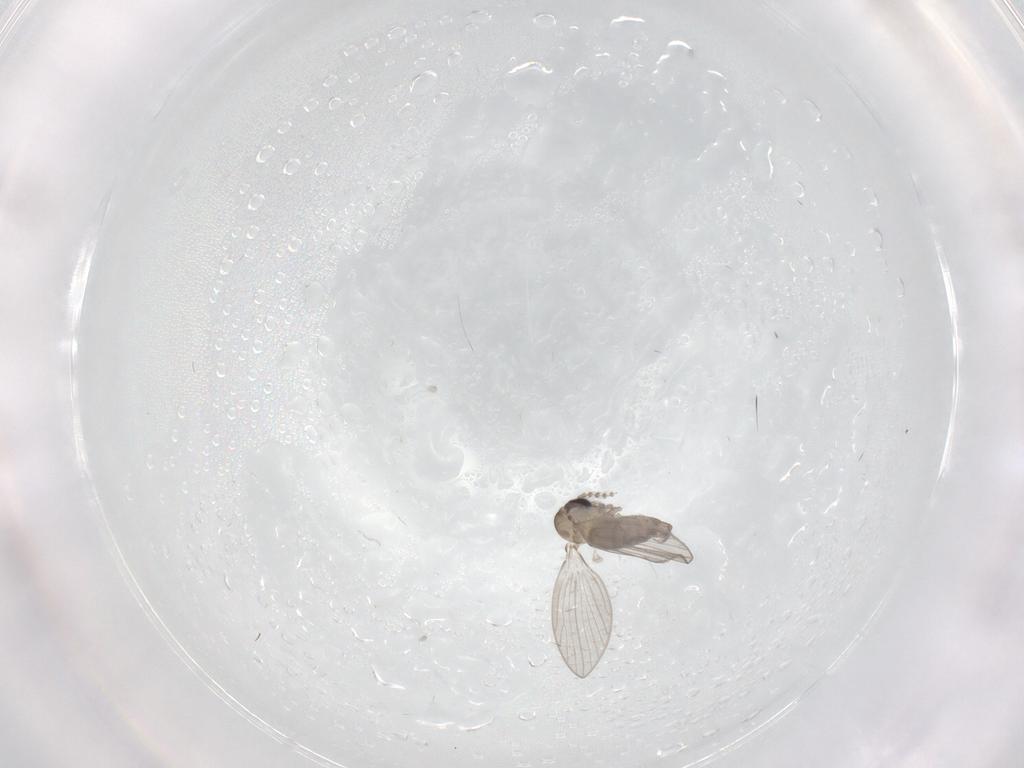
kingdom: Animalia
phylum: Arthropoda
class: Insecta
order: Diptera
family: Psychodidae
